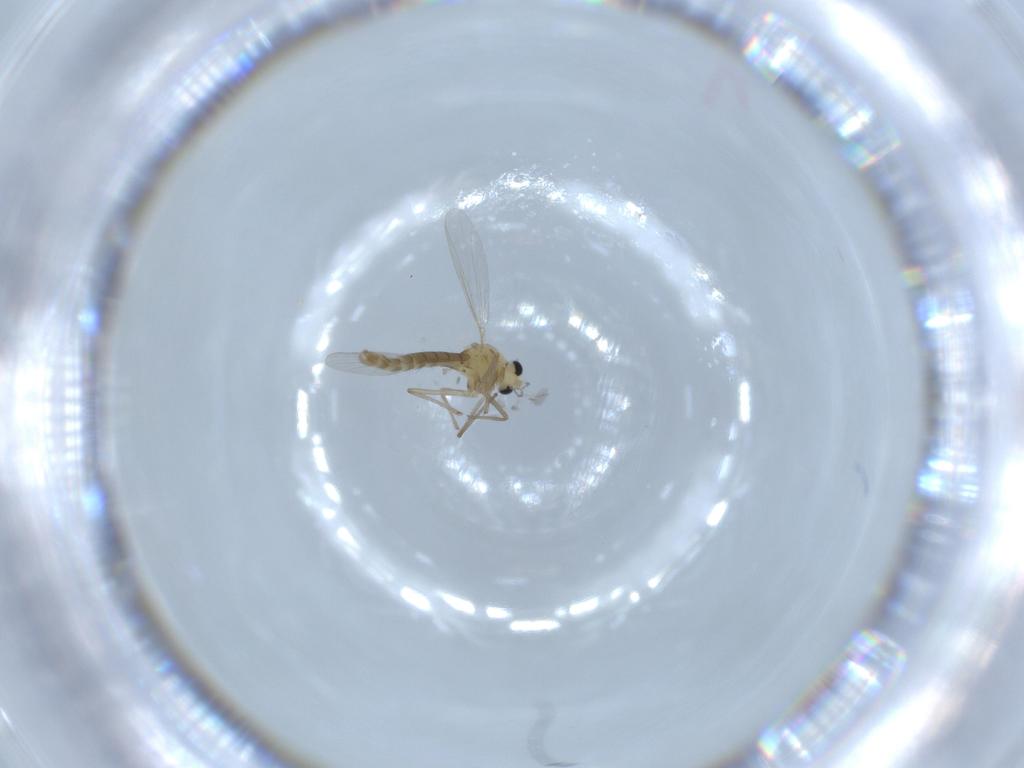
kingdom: Animalia
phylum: Arthropoda
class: Insecta
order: Diptera
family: Chironomidae
